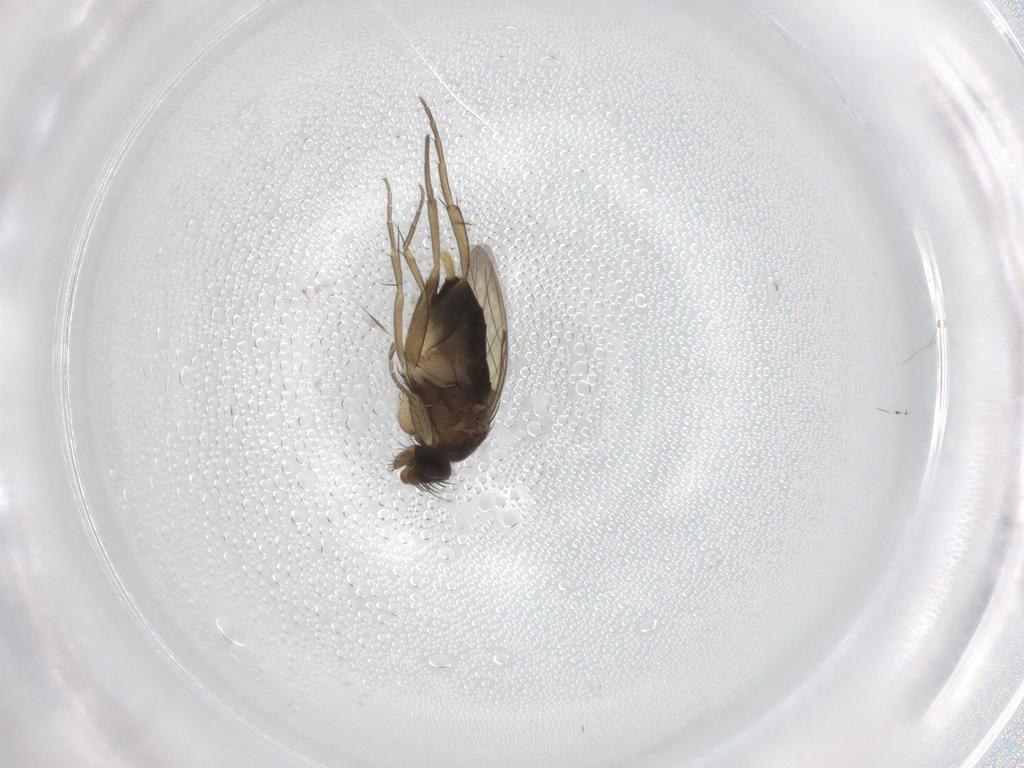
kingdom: Animalia
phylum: Arthropoda
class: Insecta
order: Diptera
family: Phoridae
